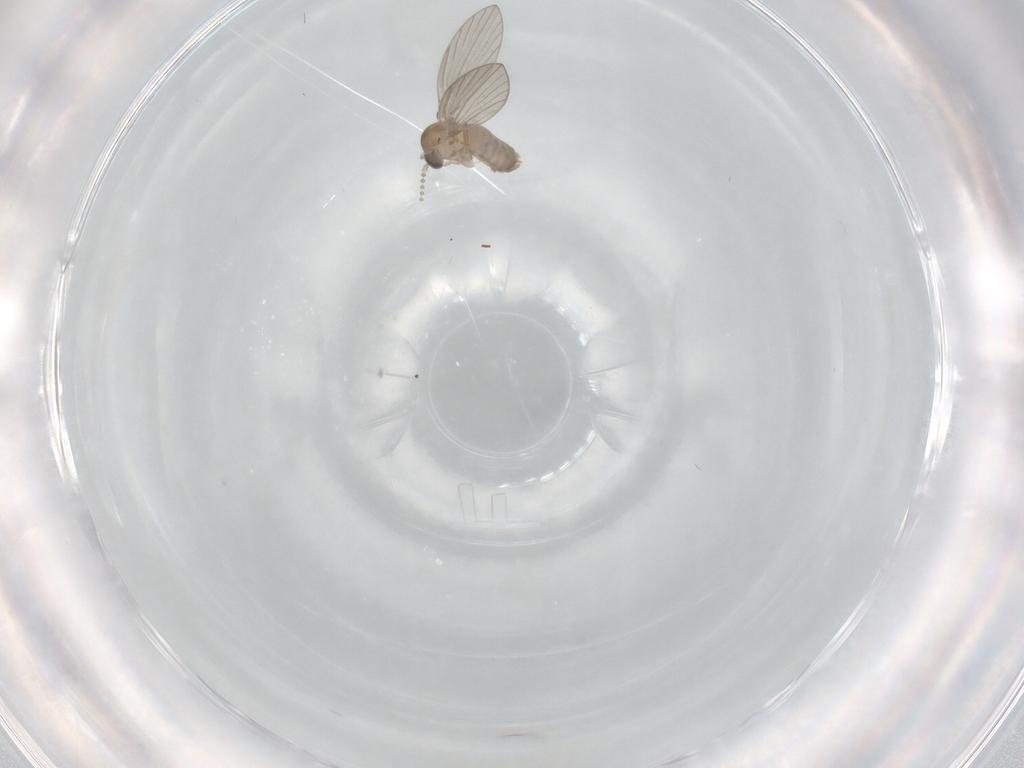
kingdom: Animalia
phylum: Arthropoda
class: Insecta
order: Diptera
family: Psychodidae
